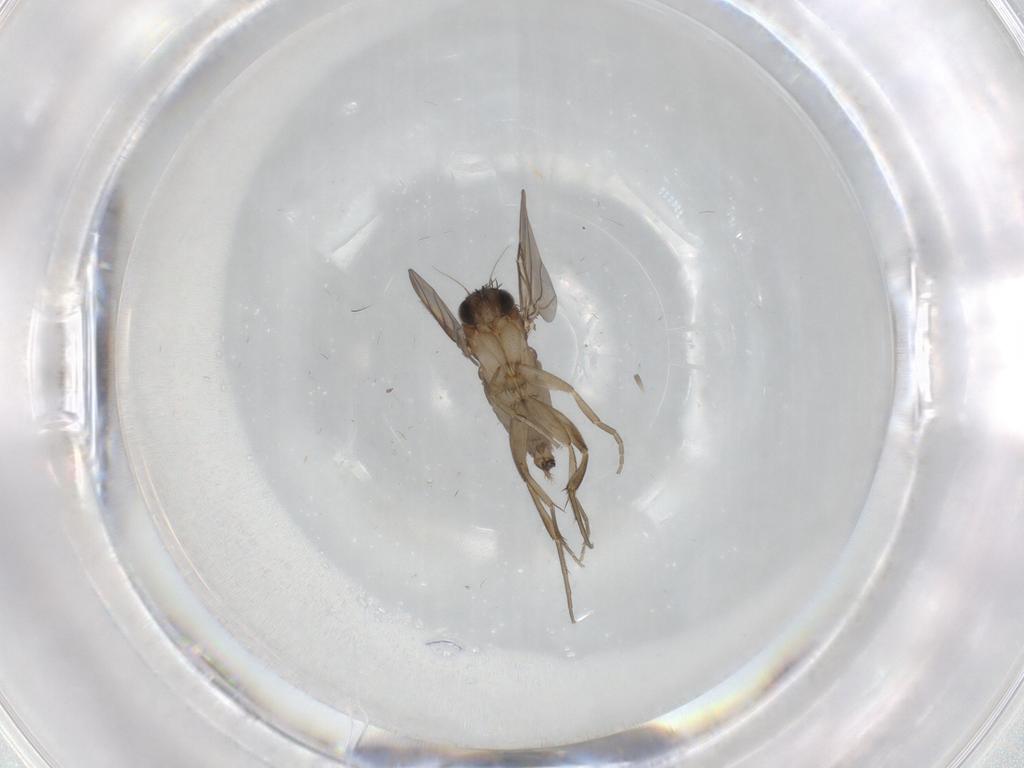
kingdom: Animalia
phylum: Arthropoda
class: Insecta
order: Diptera
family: Phoridae
